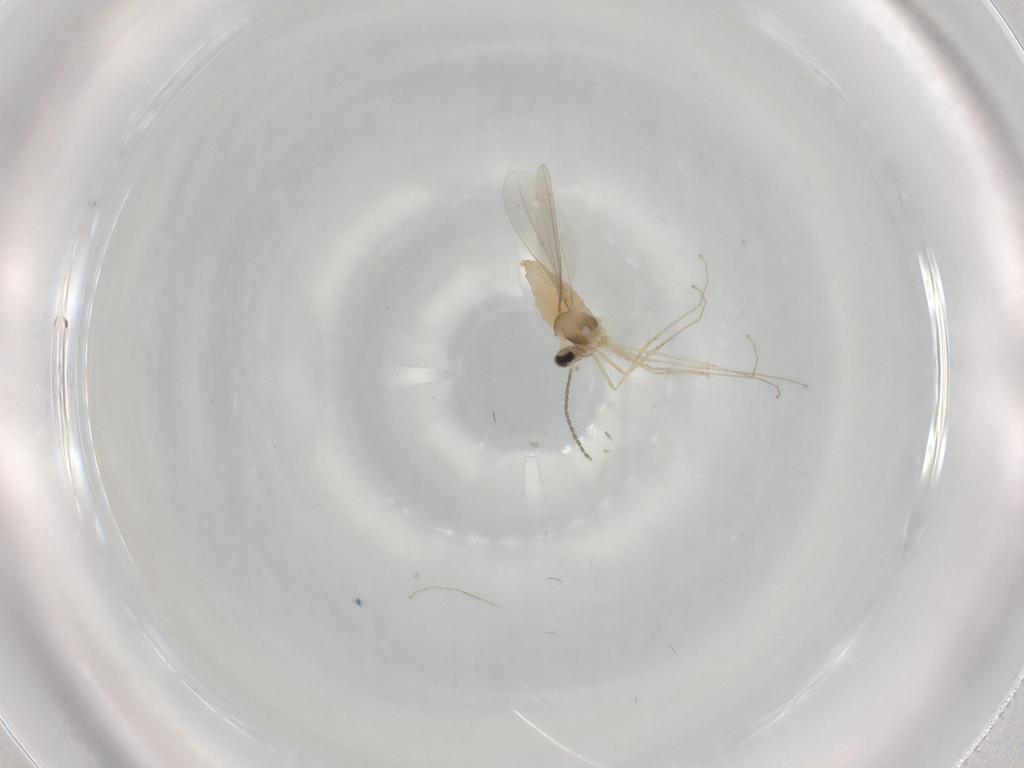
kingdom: Animalia
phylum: Arthropoda
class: Insecta
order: Diptera
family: Cecidomyiidae
